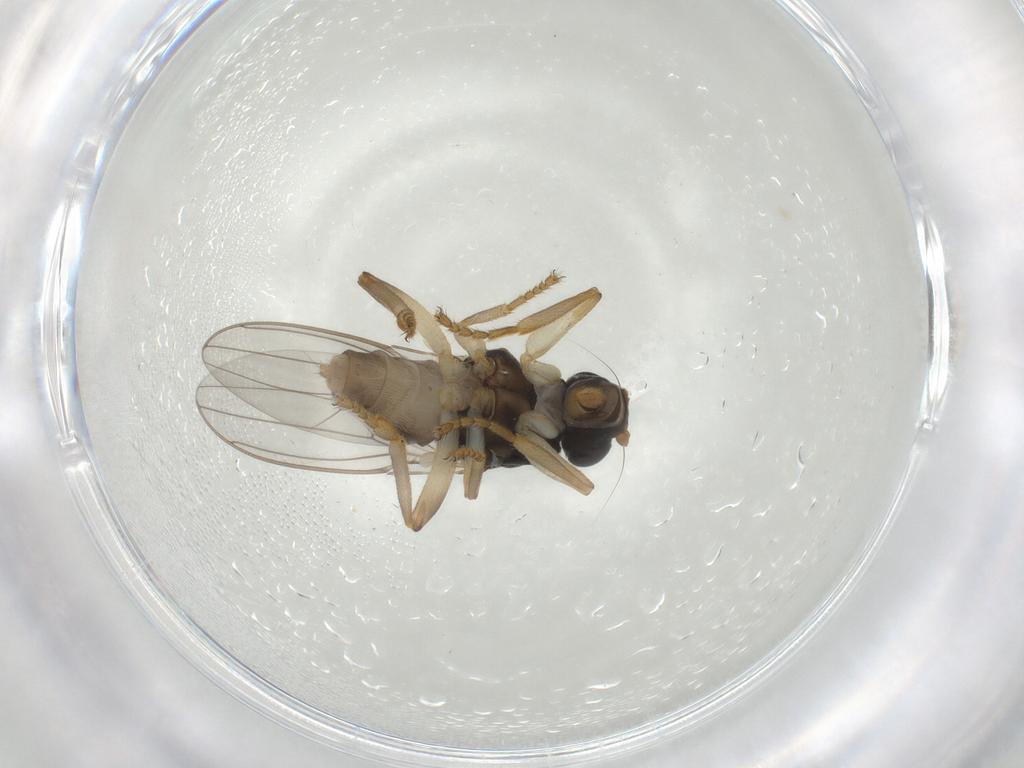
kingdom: Animalia
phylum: Arthropoda
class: Insecta
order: Diptera
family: Sphaeroceridae
